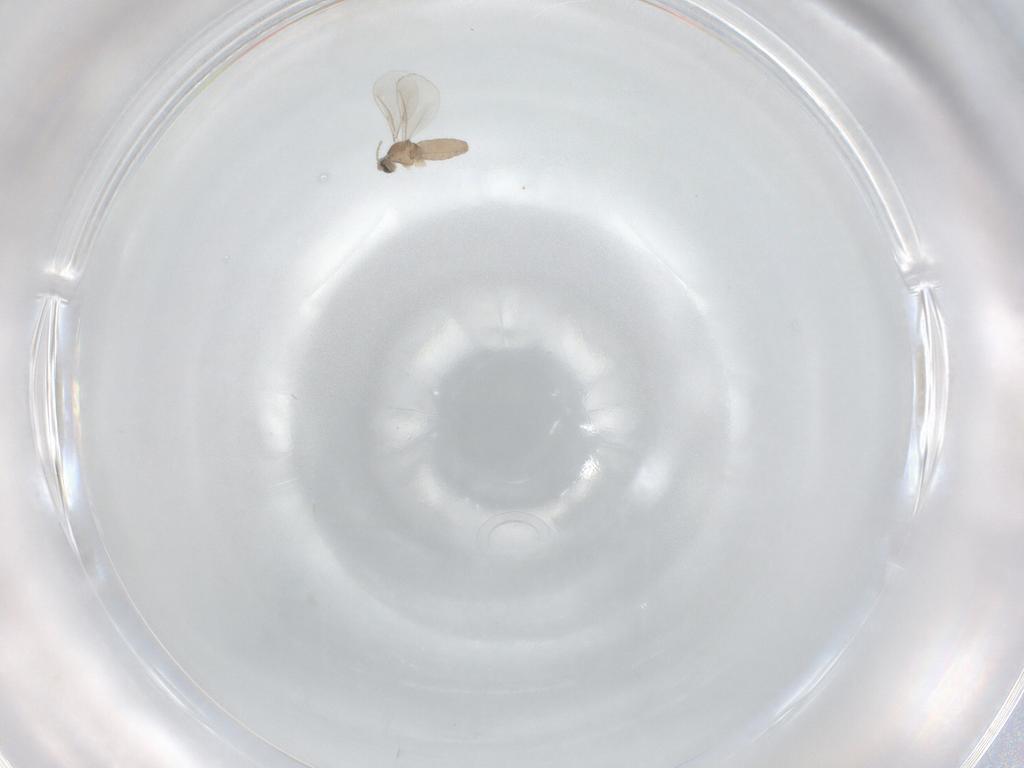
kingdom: Animalia
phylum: Arthropoda
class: Insecta
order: Diptera
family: Cecidomyiidae
